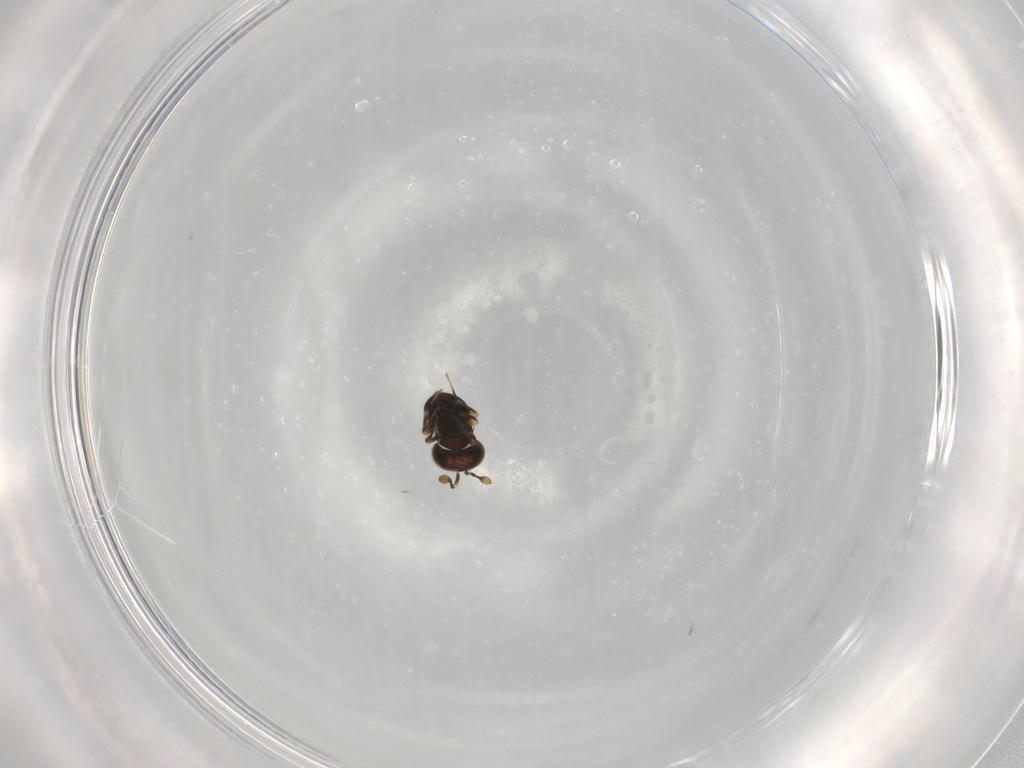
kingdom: Animalia
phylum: Arthropoda
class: Insecta
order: Hymenoptera
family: Scelionidae
